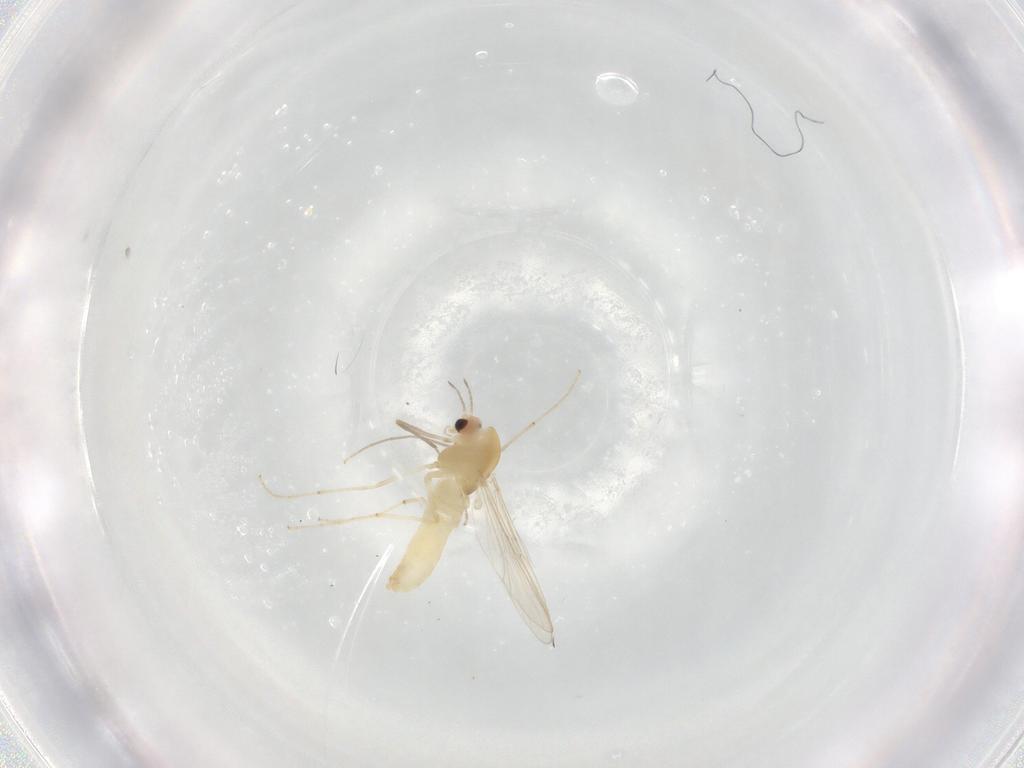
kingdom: Animalia
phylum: Arthropoda
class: Insecta
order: Diptera
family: Chironomidae
